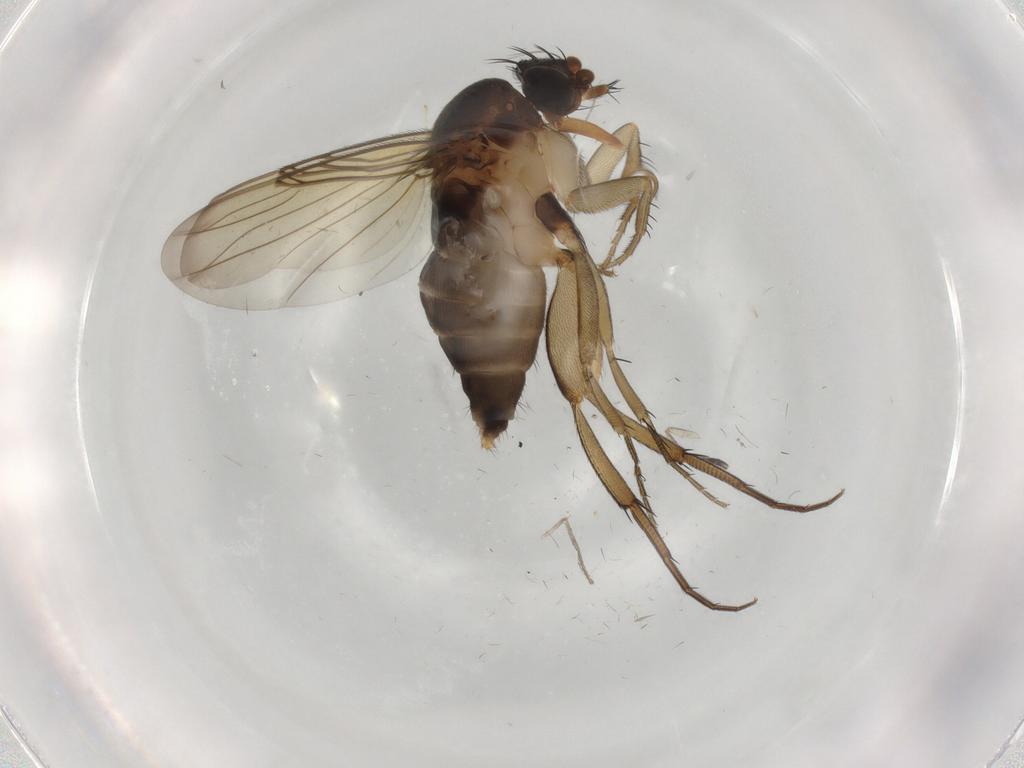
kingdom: Animalia
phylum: Arthropoda
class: Insecta
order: Diptera
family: Phoridae
